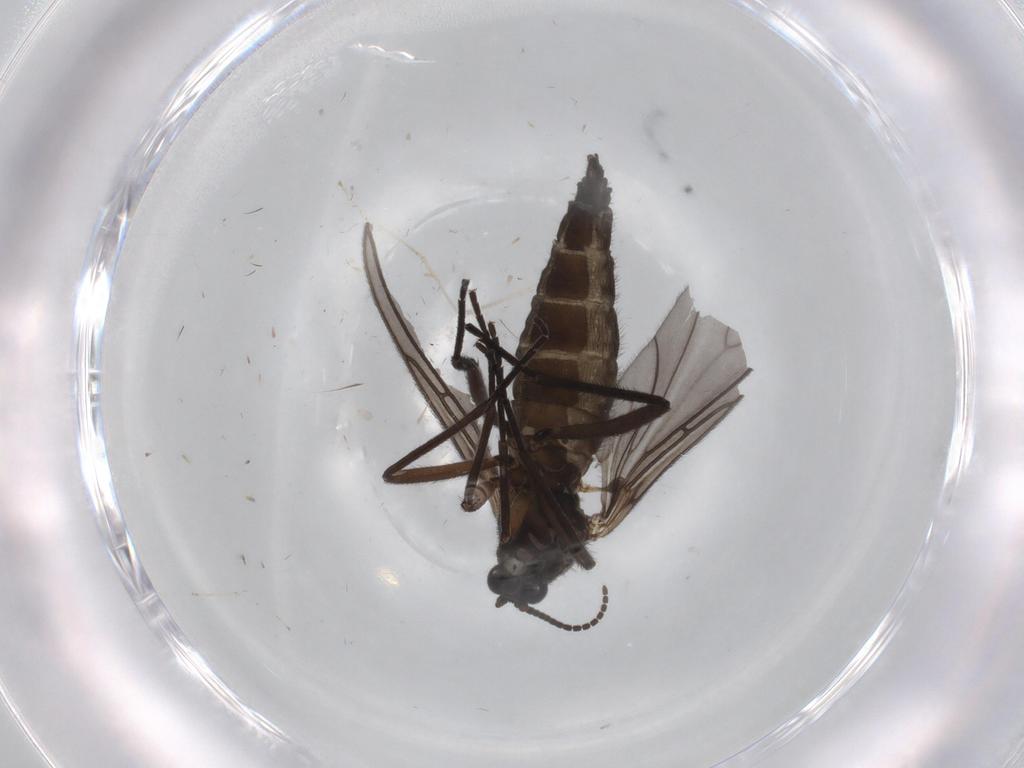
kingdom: Animalia
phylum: Arthropoda
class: Insecta
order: Diptera
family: Sciaridae
